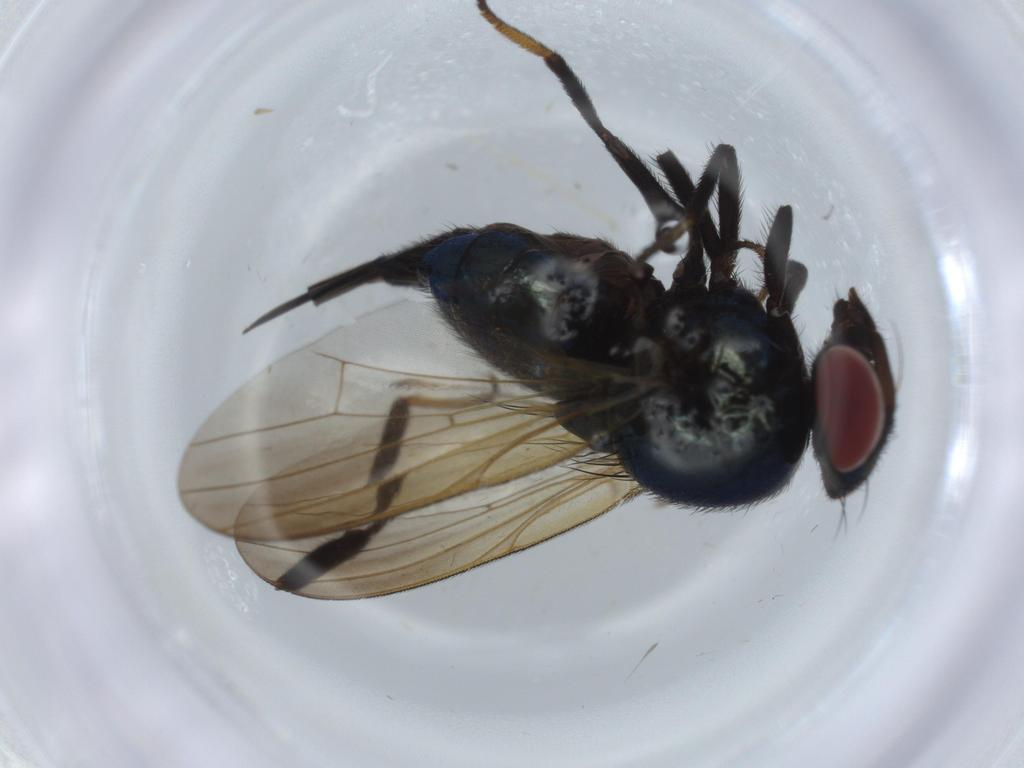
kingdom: Animalia
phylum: Arthropoda
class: Insecta
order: Diptera
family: Lonchaeidae
